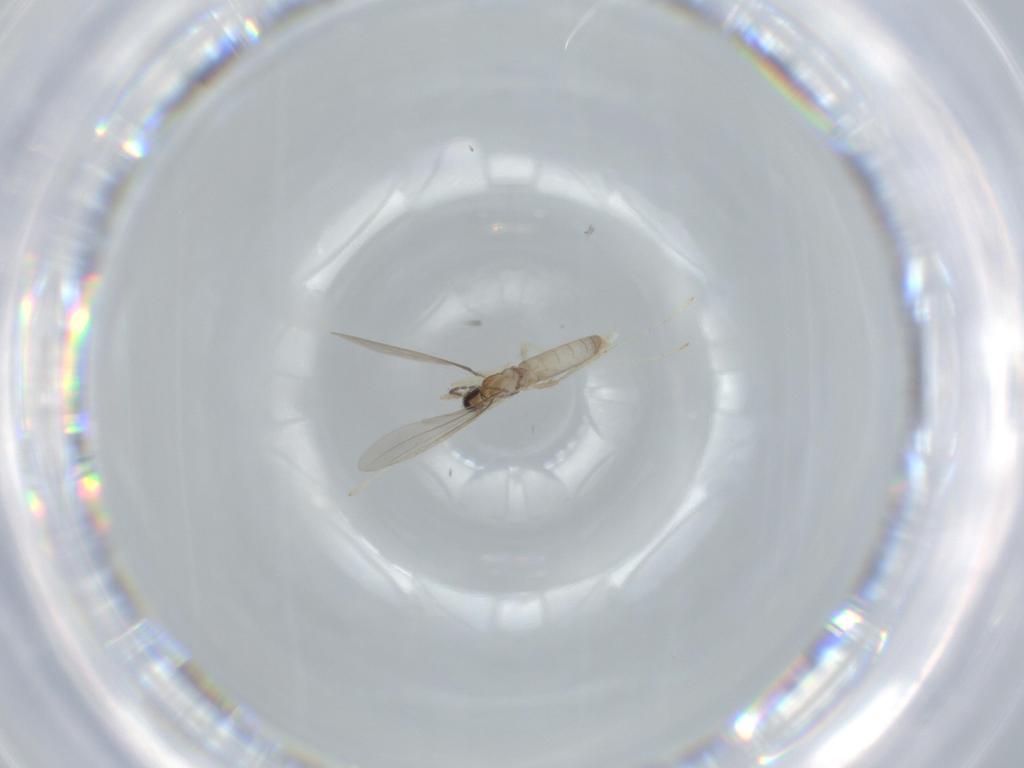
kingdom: Animalia
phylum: Arthropoda
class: Insecta
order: Diptera
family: Cecidomyiidae
